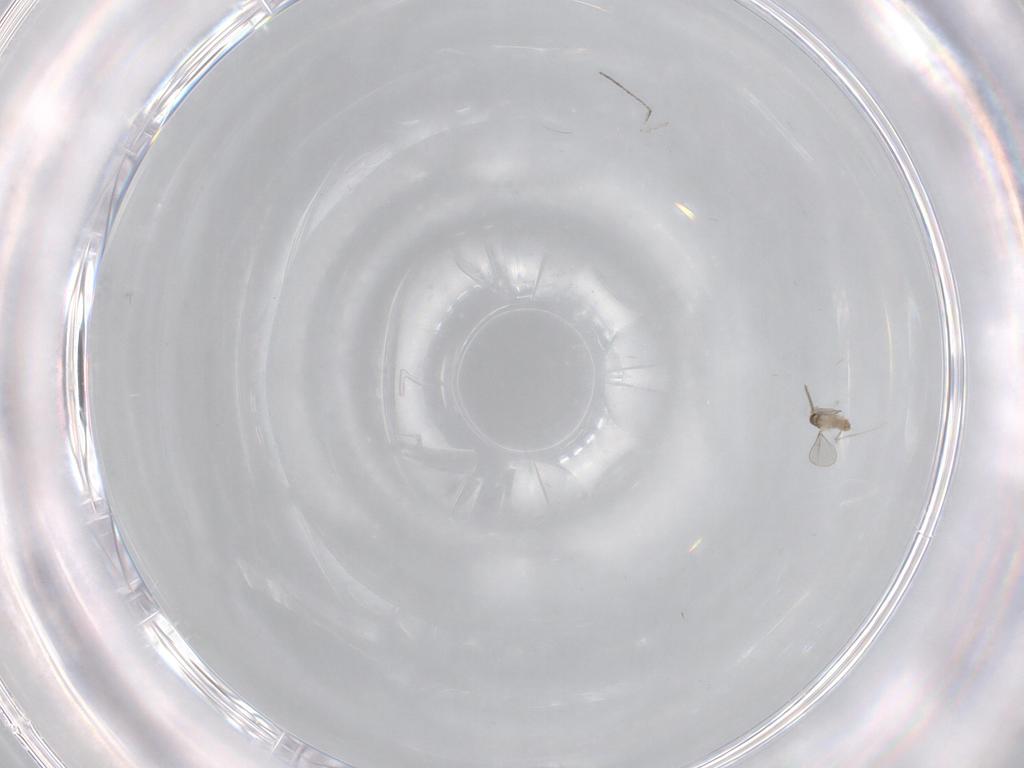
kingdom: Animalia
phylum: Arthropoda
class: Insecta
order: Diptera
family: Cecidomyiidae
